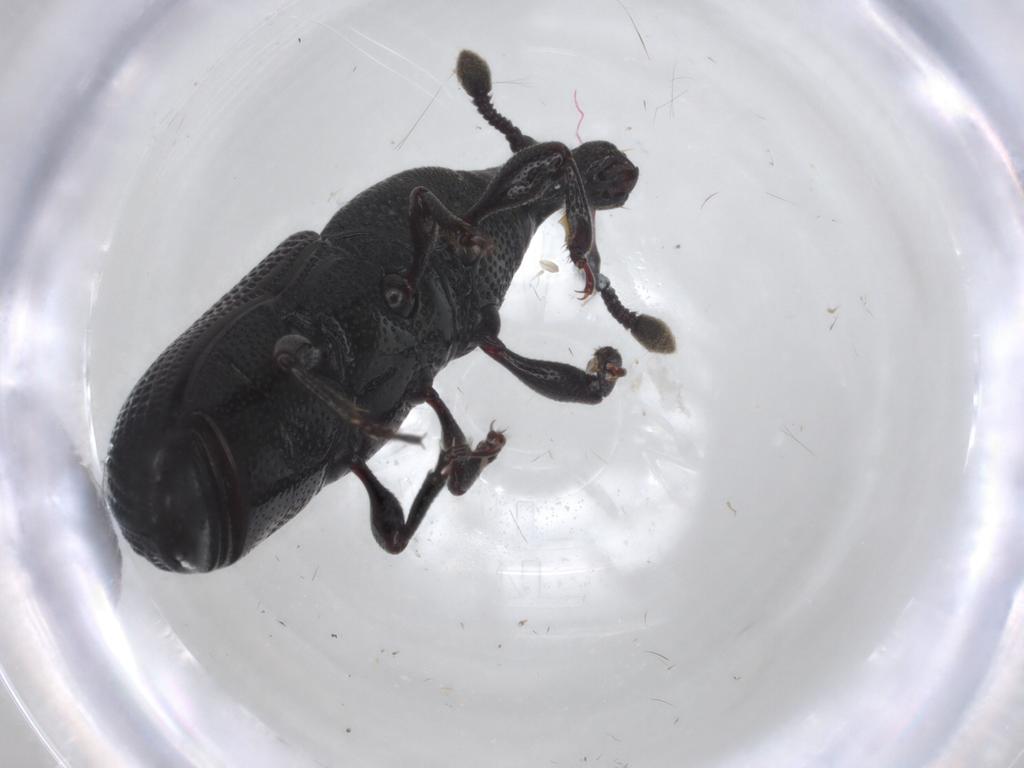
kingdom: Animalia
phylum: Arthropoda
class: Insecta
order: Coleoptera
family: Curculionidae
